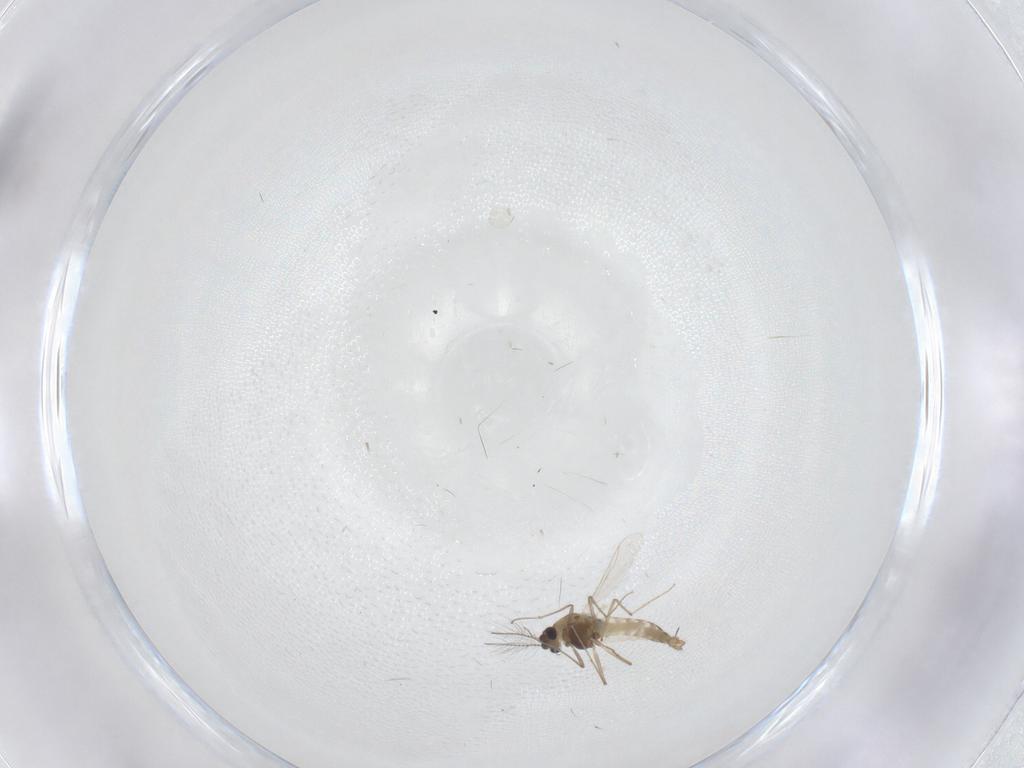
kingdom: Animalia
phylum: Arthropoda
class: Insecta
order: Diptera
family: Chironomidae
